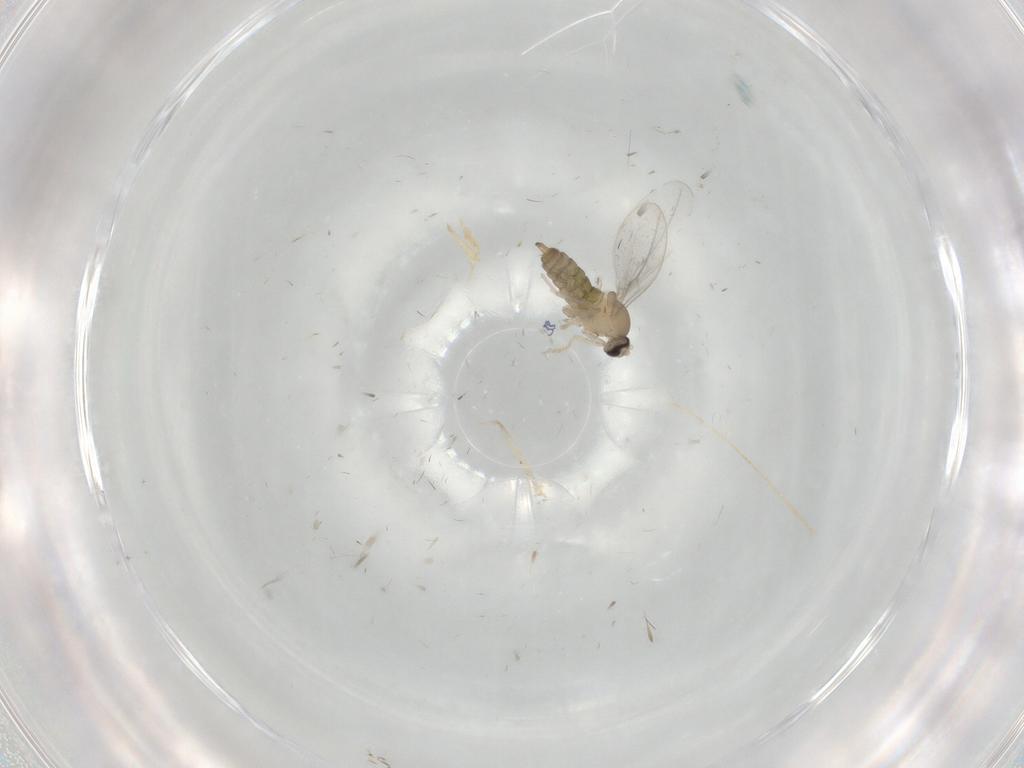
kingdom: Animalia
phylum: Arthropoda
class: Insecta
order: Diptera
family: Cecidomyiidae
